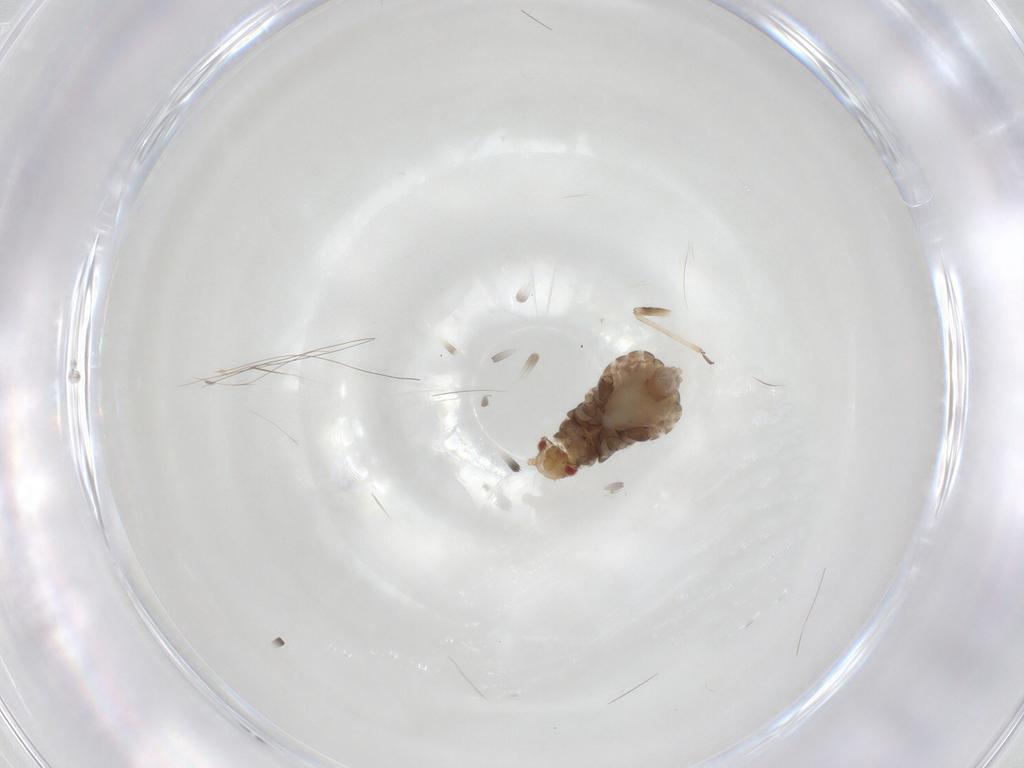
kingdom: Animalia
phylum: Arthropoda
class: Insecta
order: Hemiptera
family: Aphididae
